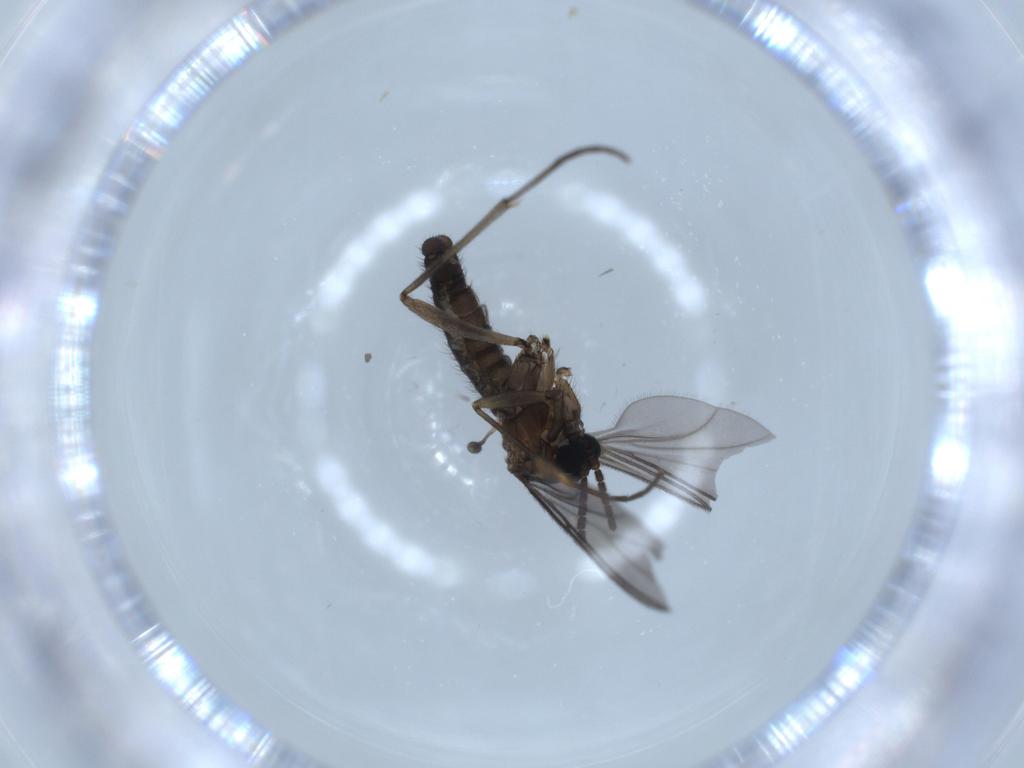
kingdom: Animalia
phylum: Arthropoda
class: Insecta
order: Diptera
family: Sciaridae
